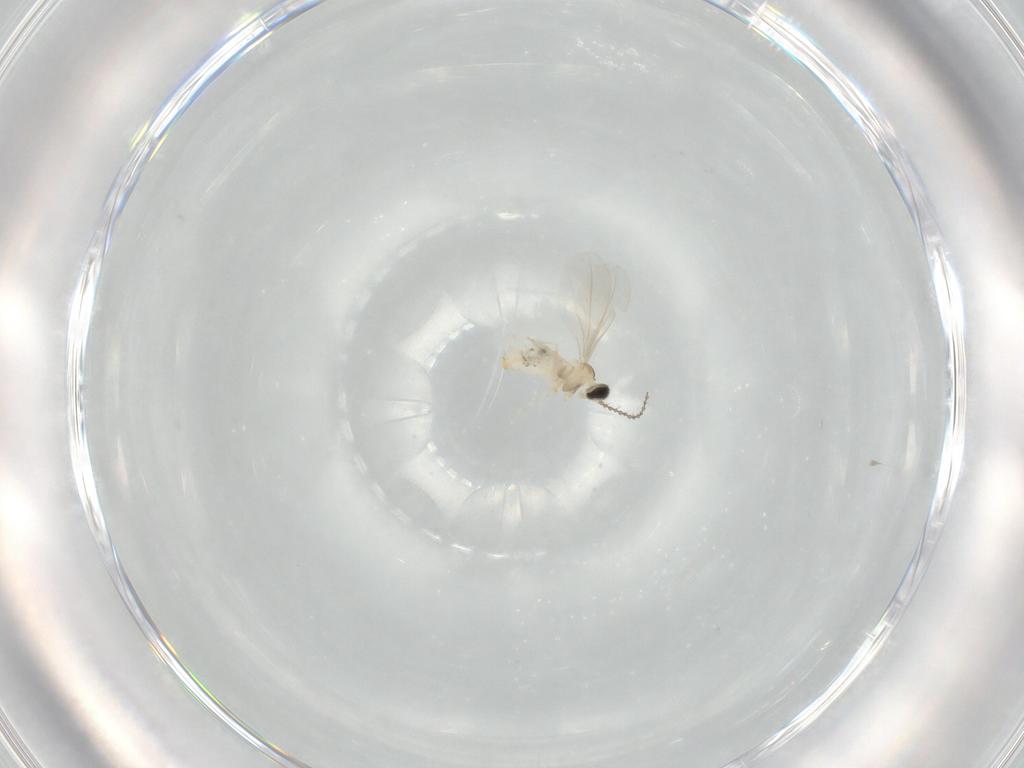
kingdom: Animalia
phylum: Arthropoda
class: Insecta
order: Diptera
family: Cecidomyiidae
